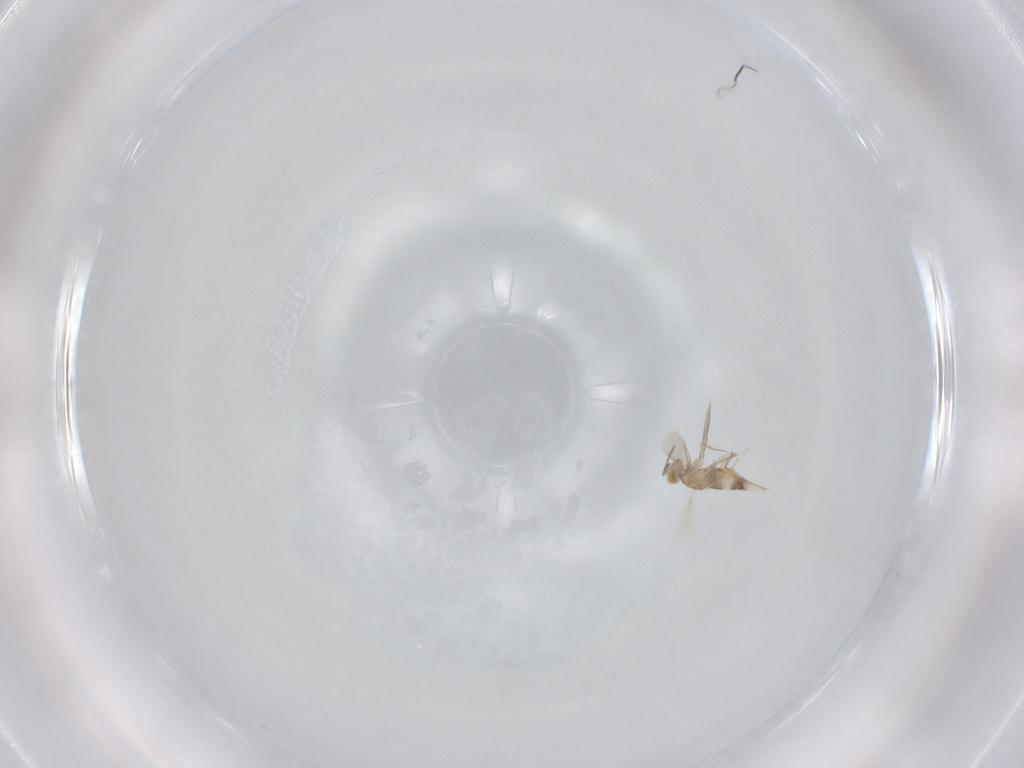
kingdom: Animalia
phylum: Arthropoda
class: Insecta
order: Hymenoptera
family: Aphelinidae
